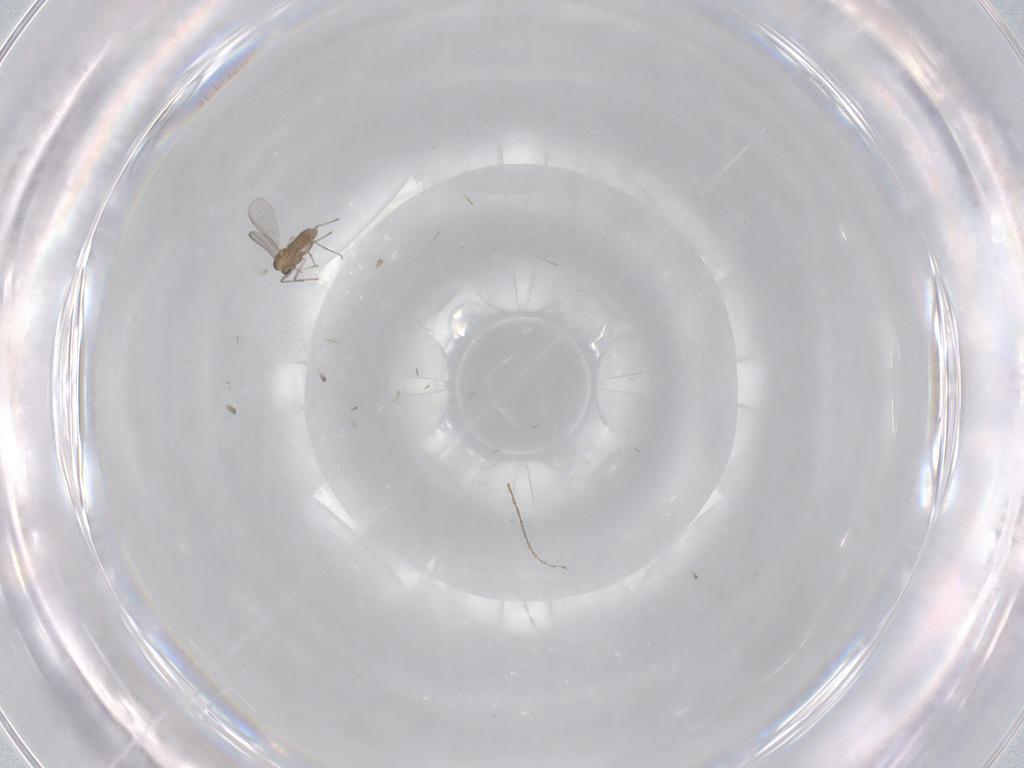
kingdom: Animalia
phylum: Arthropoda
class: Insecta
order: Diptera
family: Chironomidae
